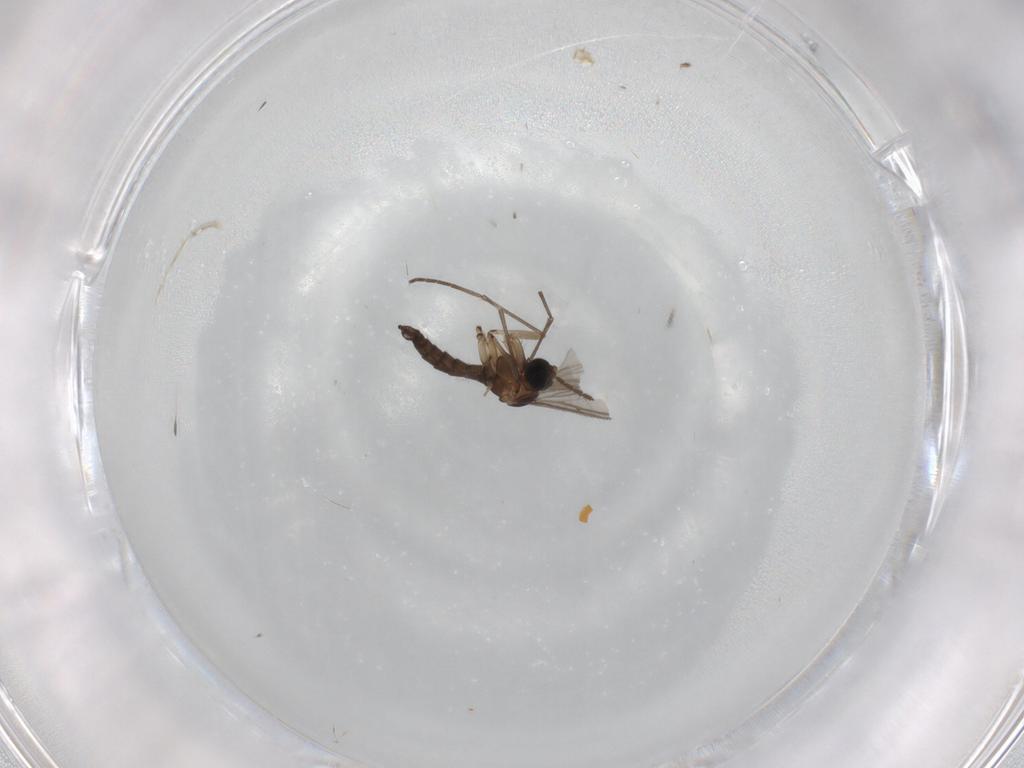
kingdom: Animalia
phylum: Arthropoda
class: Insecta
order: Diptera
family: Sciaridae
